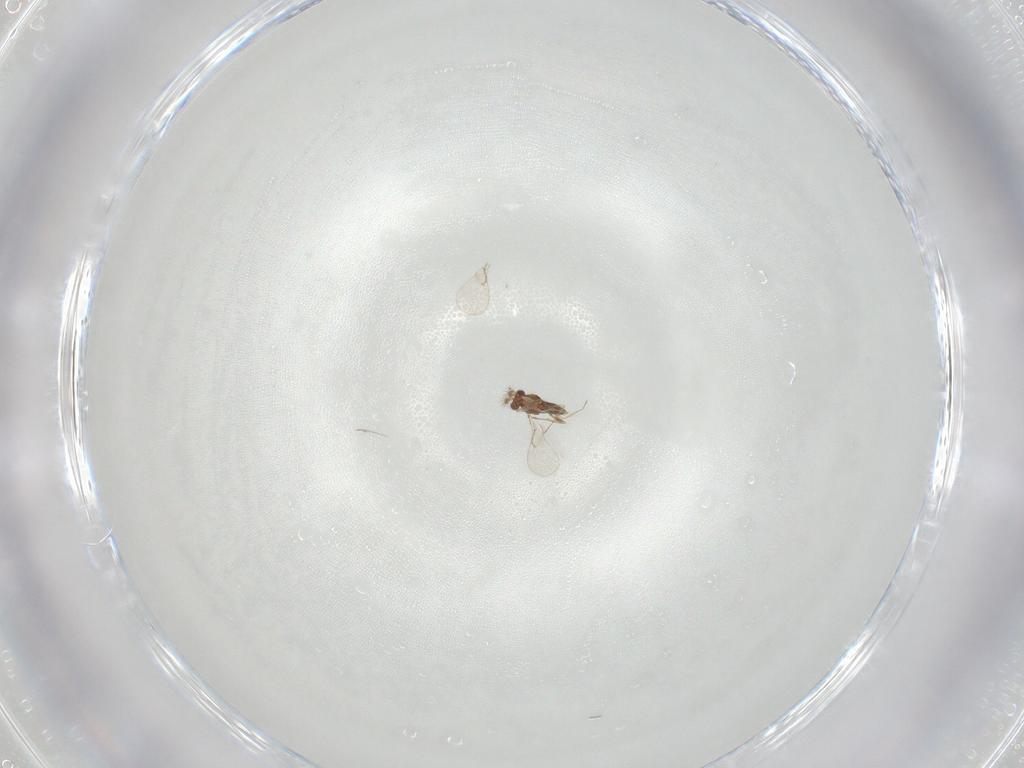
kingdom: Animalia
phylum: Arthropoda
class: Insecta
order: Hymenoptera
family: Trichogrammatidae
